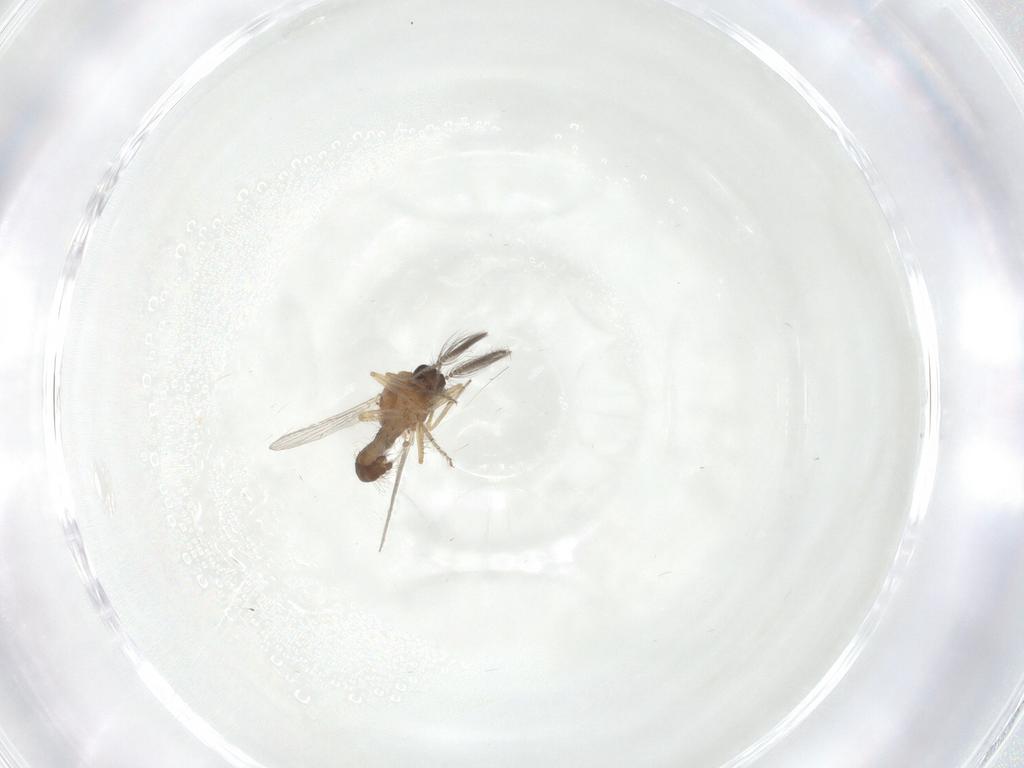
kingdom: Animalia
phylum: Arthropoda
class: Insecta
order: Diptera
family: Ceratopogonidae
